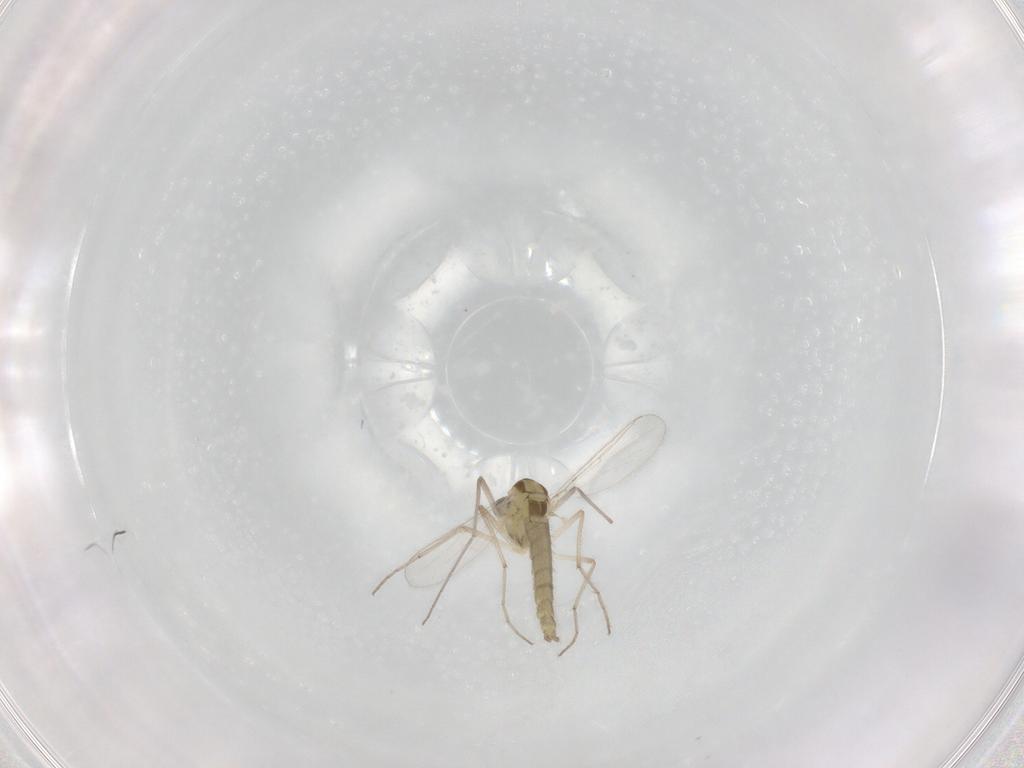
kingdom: Animalia
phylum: Arthropoda
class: Insecta
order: Diptera
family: Chironomidae
